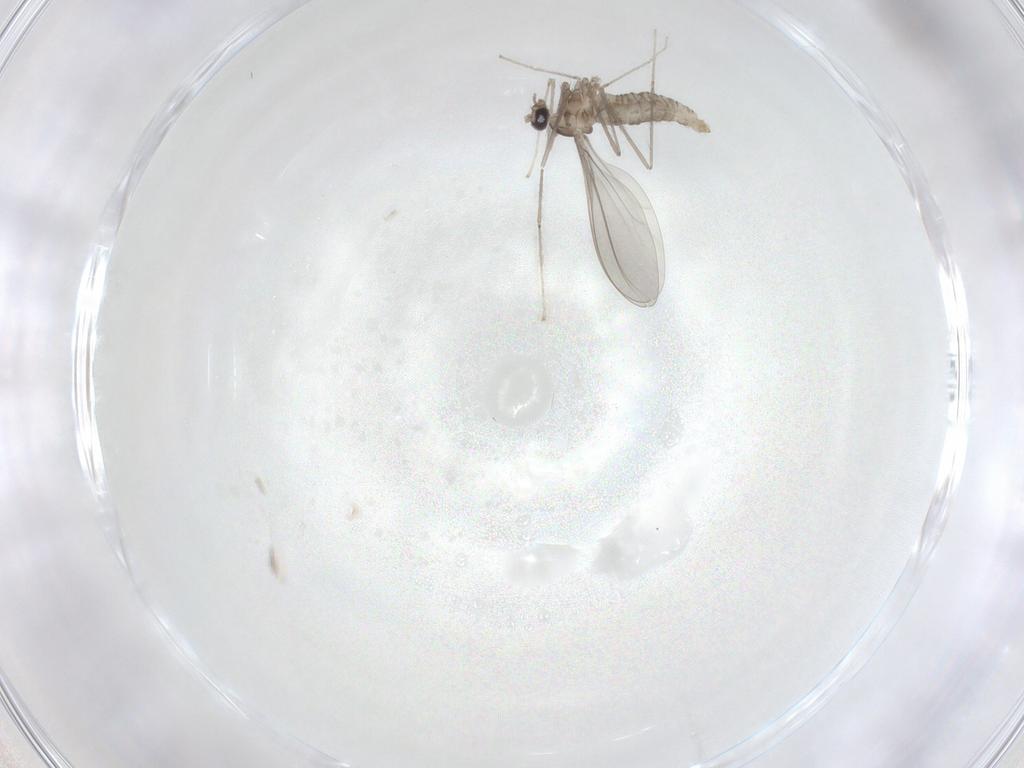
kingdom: Animalia
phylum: Arthropoda
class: Insecta
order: Diptera
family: Cecidomyiidae
